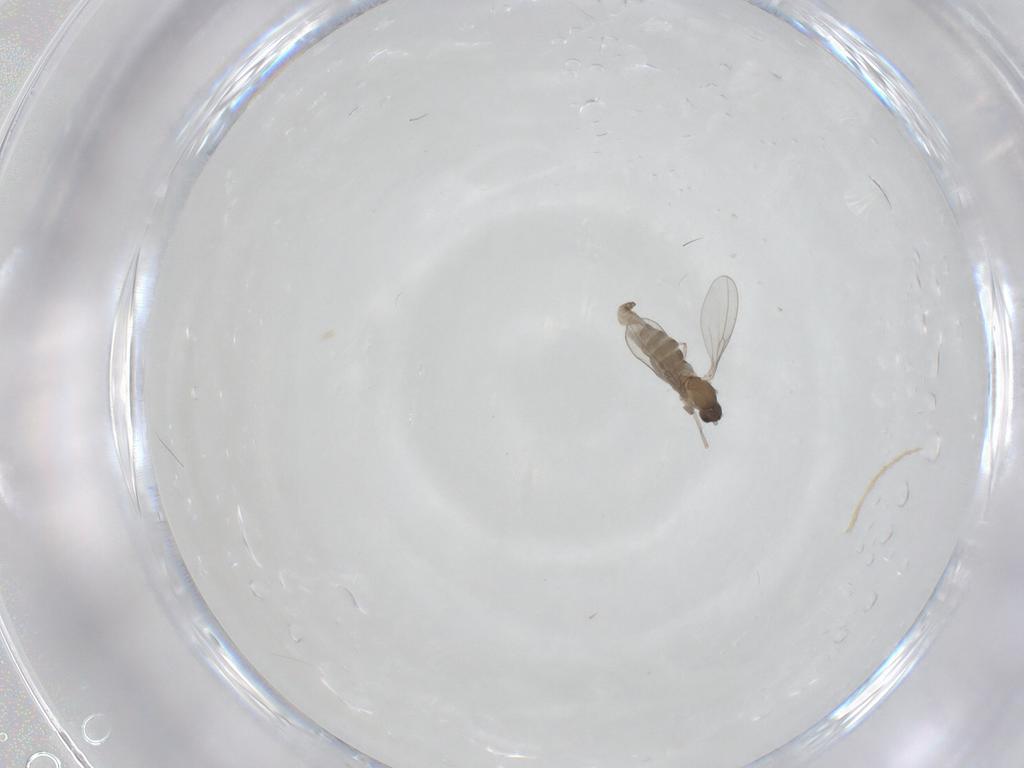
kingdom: Animalia
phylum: Arthropoda
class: Insecta
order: Diptera
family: Cecidomyiidae
